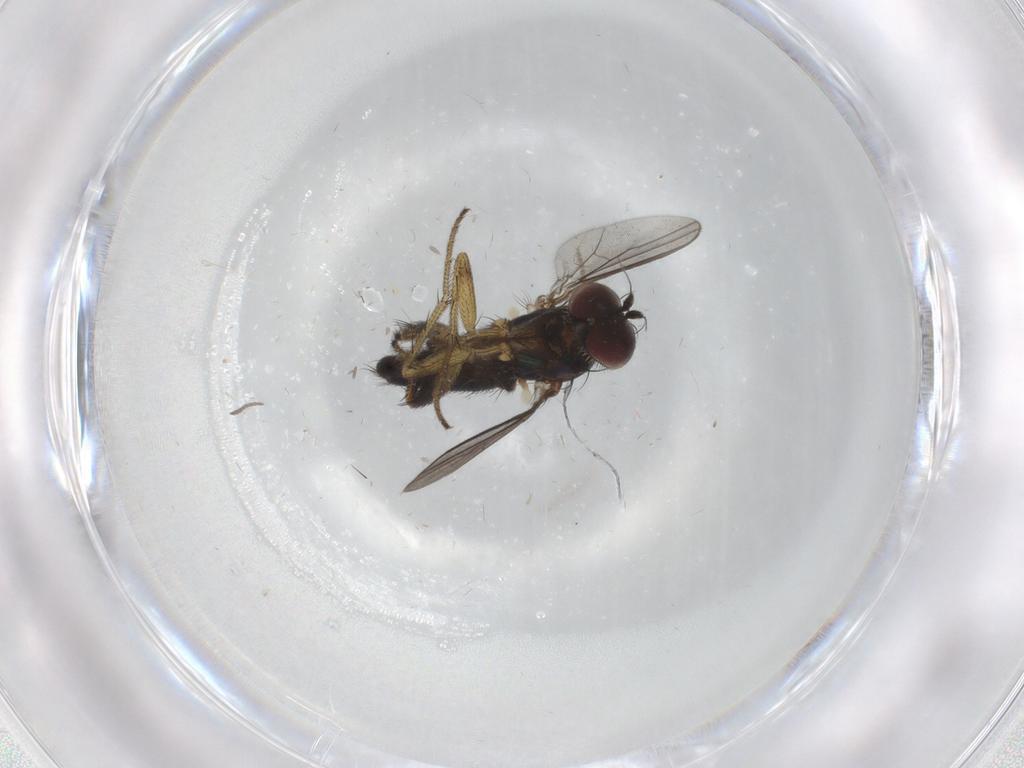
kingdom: Animalia
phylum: Arthropoda
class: Insecta
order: Diptera
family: Dolichopodidae
